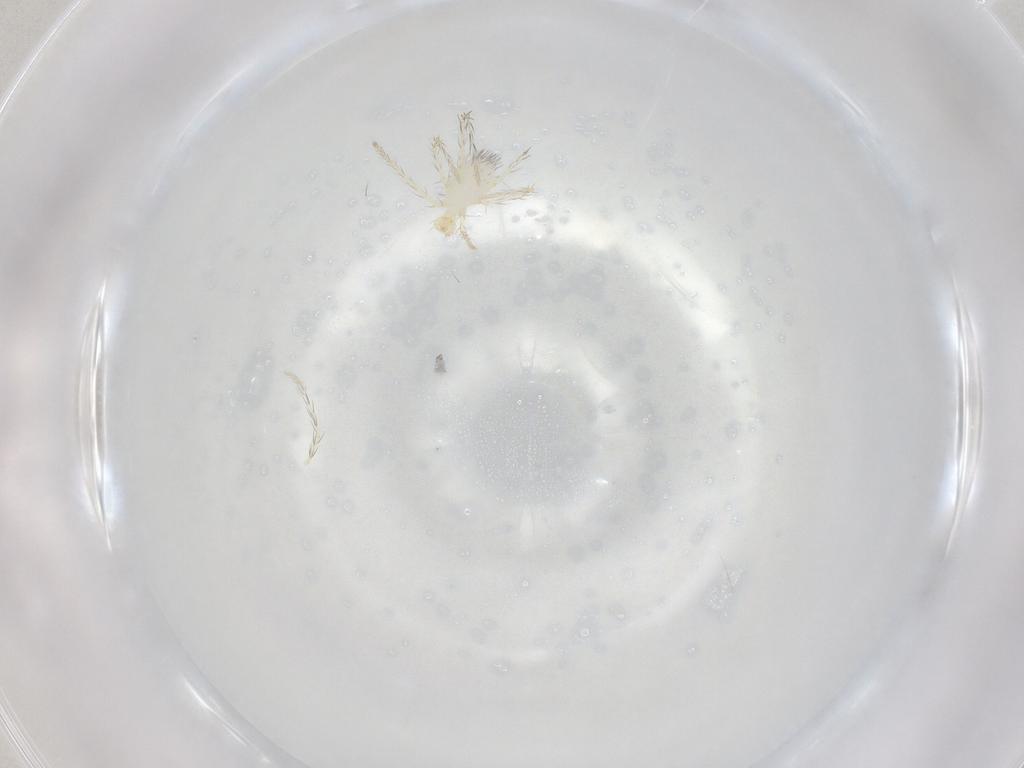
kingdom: Animalia
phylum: Arthropoda
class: Arachnida
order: Trombidiformes
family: Erythraeidae
